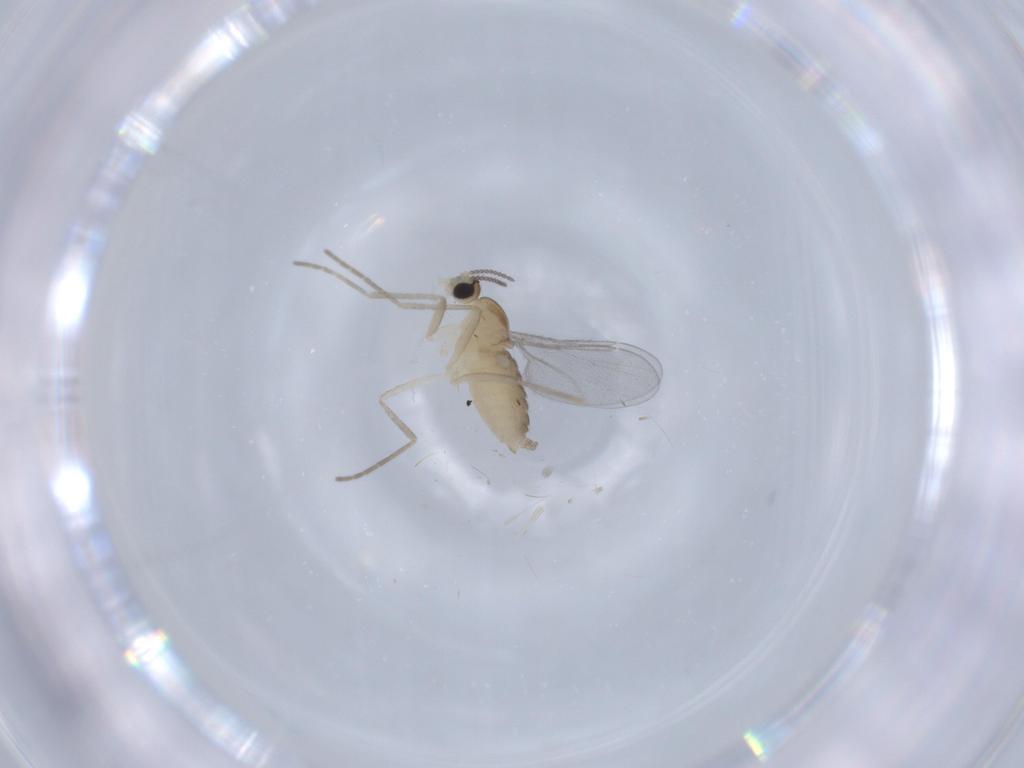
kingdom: Animalia
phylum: Arthropoda
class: Insecta
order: Diptera
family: Cecidomyiidae
